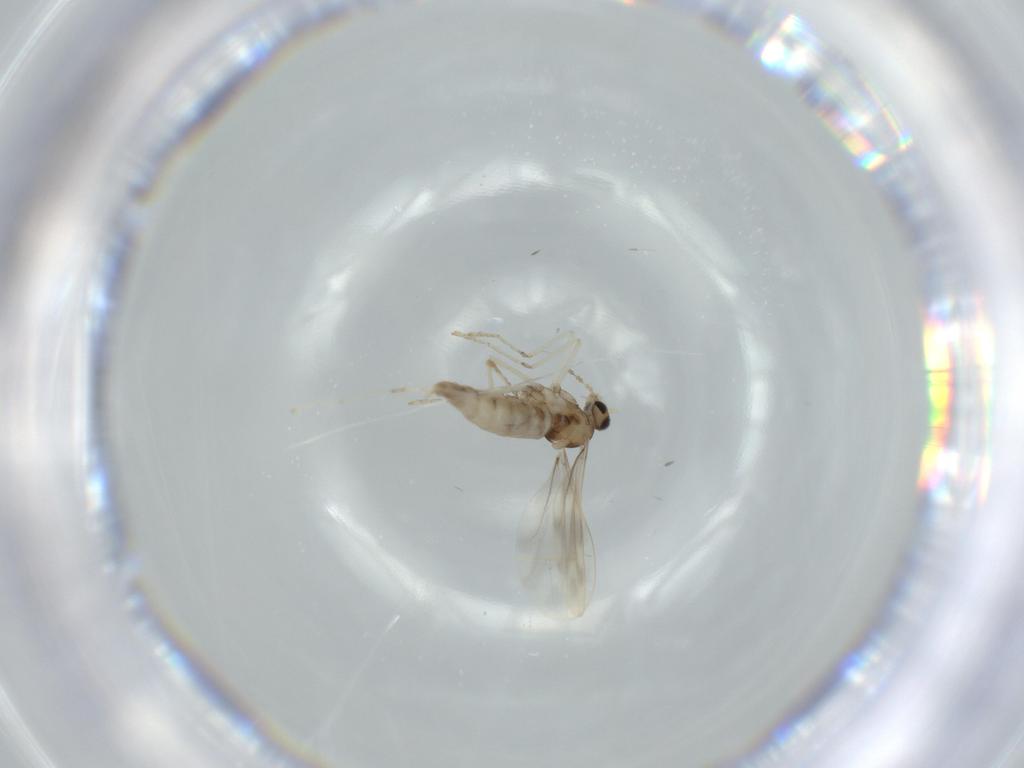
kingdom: Animalia
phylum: Arthropoda
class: Insecta
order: Diptera
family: Cecidomyiidae
